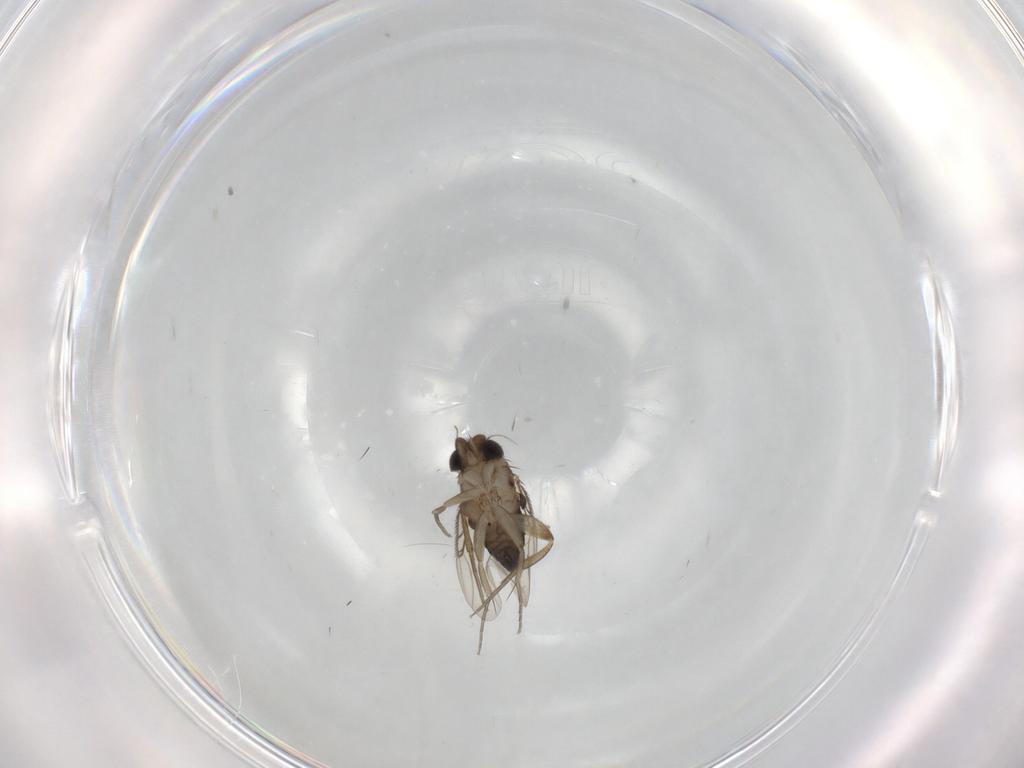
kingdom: Animalia
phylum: Arthropoda
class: Insecta
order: Diptera
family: Phoridae
